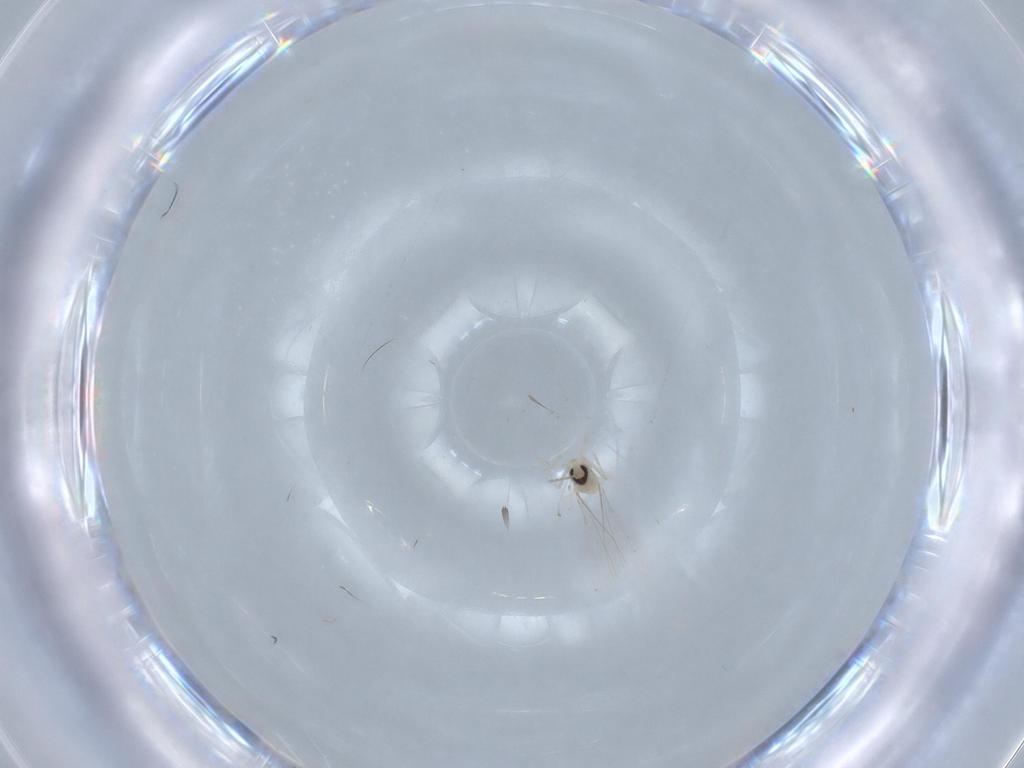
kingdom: Animalia
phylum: Arthropoda
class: Insecta
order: Diptera
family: Cecidomyiidae
